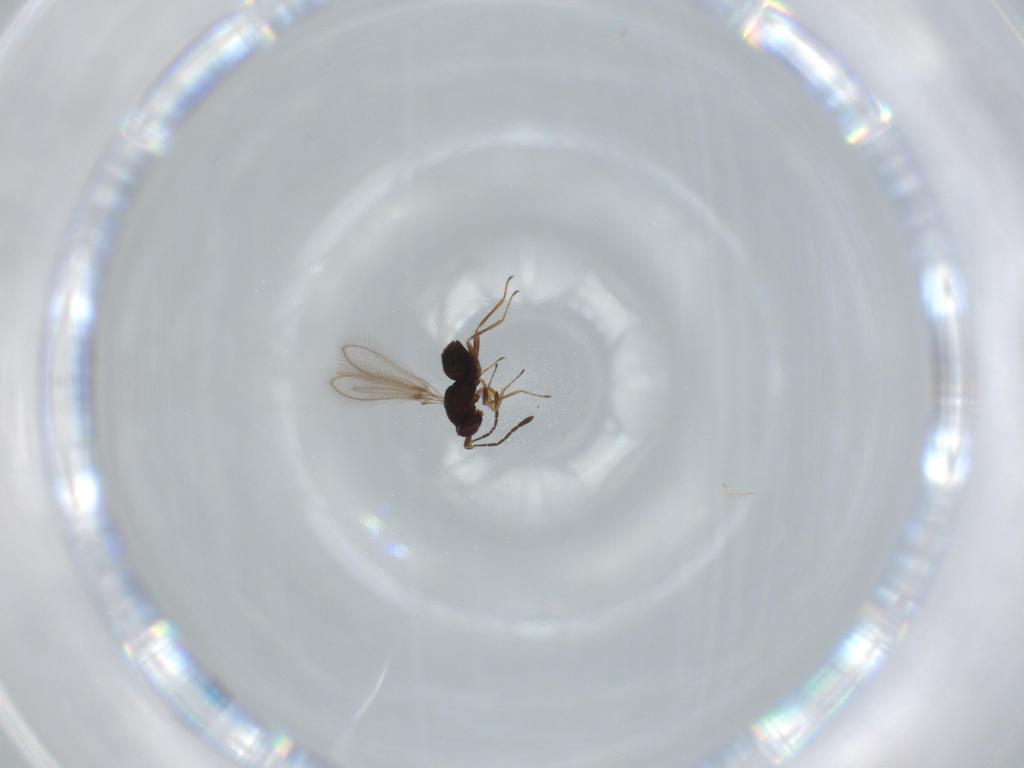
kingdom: Animalia
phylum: Arthropoda
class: Insecta
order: Hymenoptera
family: Ichneumonidae
